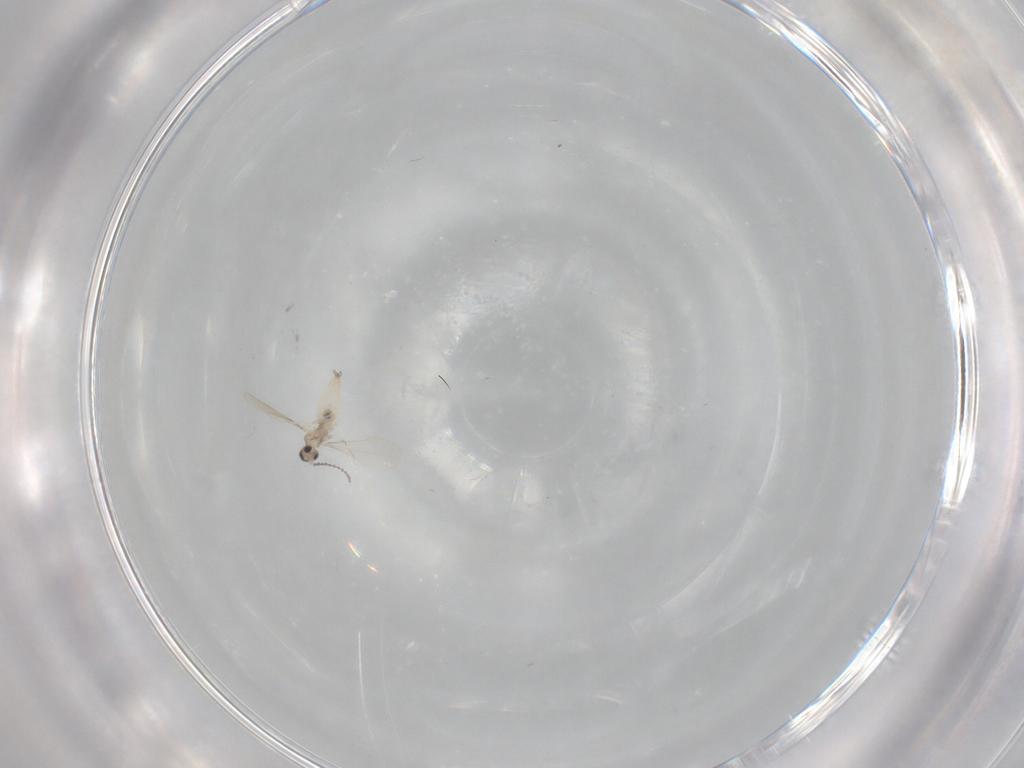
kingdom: Animalia
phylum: Arthropoda
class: Insecta
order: Diptera
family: Cecidomyiidae
